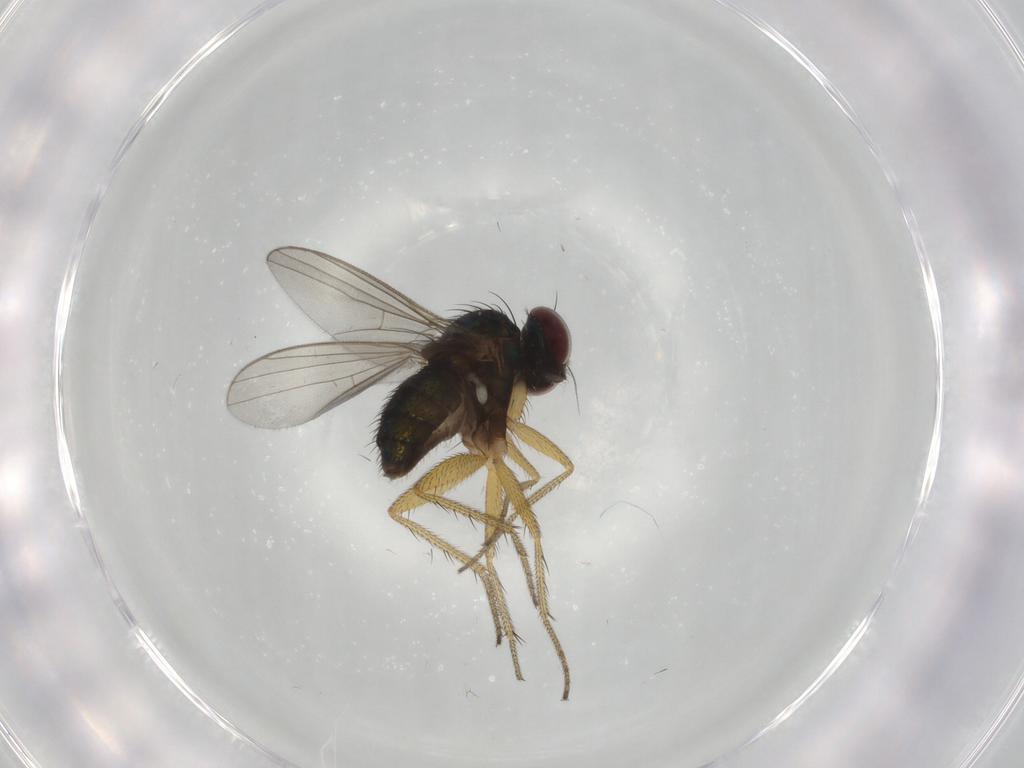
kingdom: Animalia
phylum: Arthropoda
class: Insecta
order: Diptera
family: Dolichopodidae
